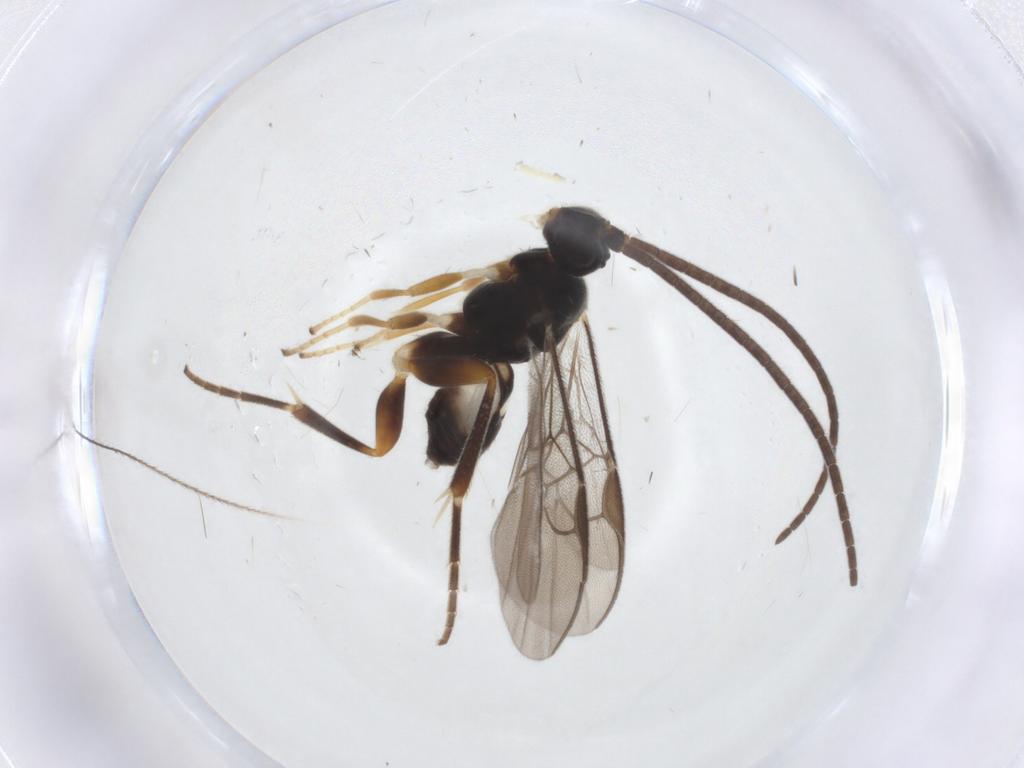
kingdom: Animalia
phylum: Arthropoda
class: Insecta
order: Hymenoptera
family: Braconidae
